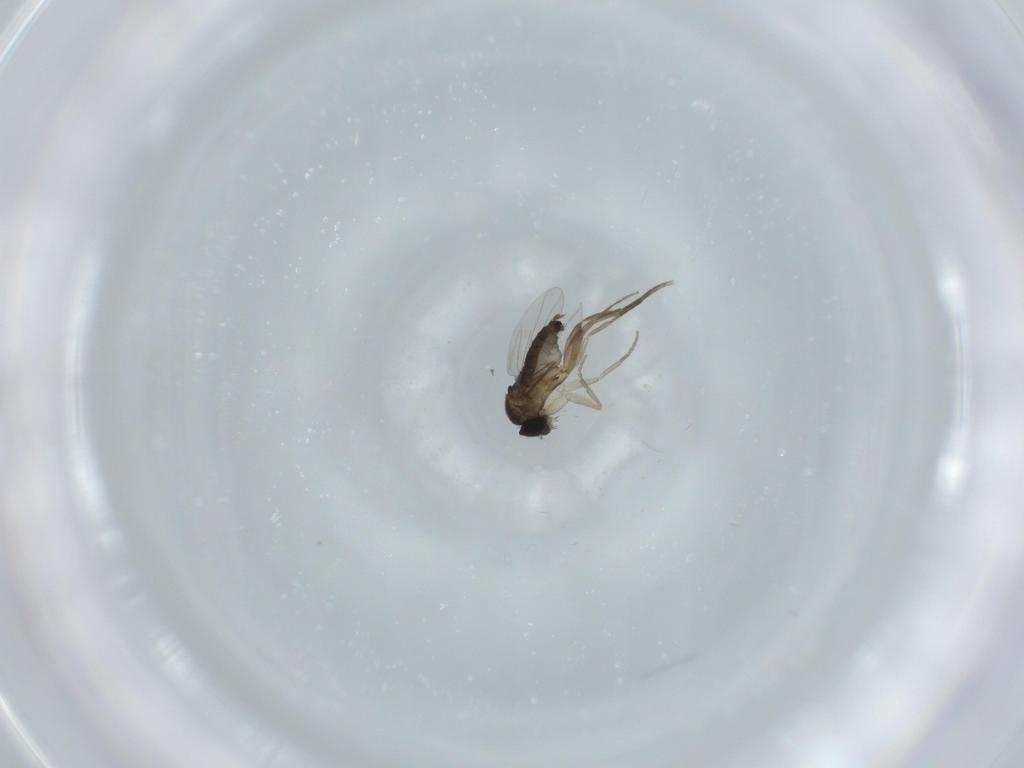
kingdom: Animalia
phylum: Arthropoda
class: Insecta
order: Diptera
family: Phoridae
